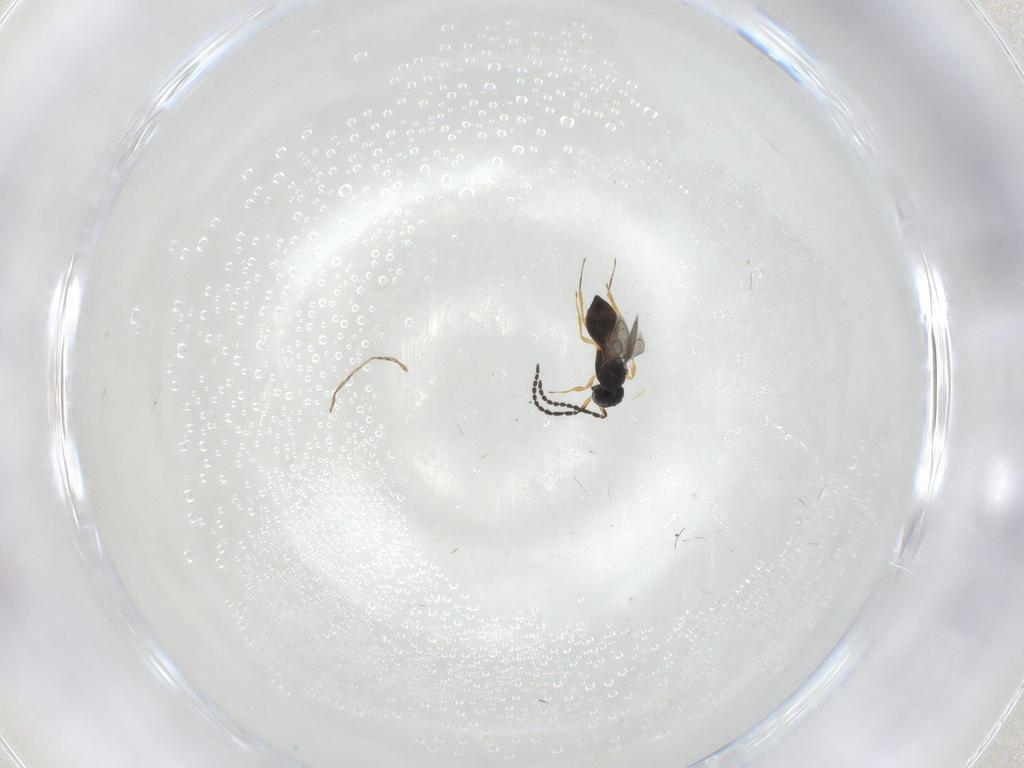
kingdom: Animalia
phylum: Arthropoda
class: Insecta
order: Hymenoptera
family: Scelionidae
